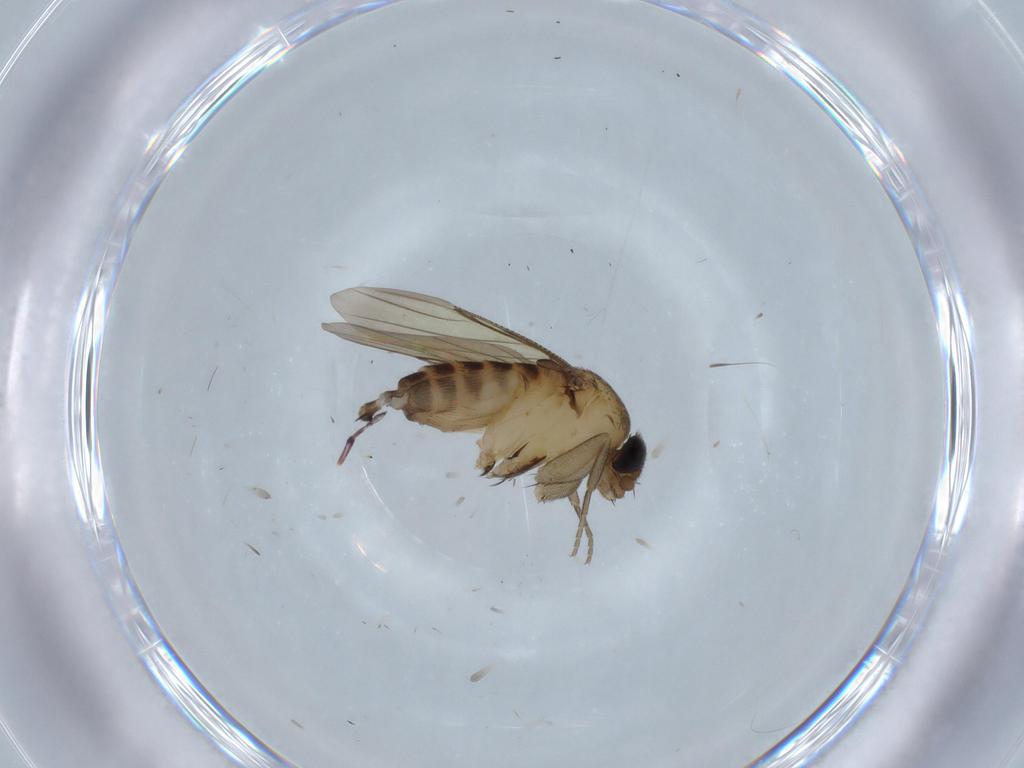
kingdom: Animalia
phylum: Arthropoda
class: Insecta
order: Diptera
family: Phoridae
